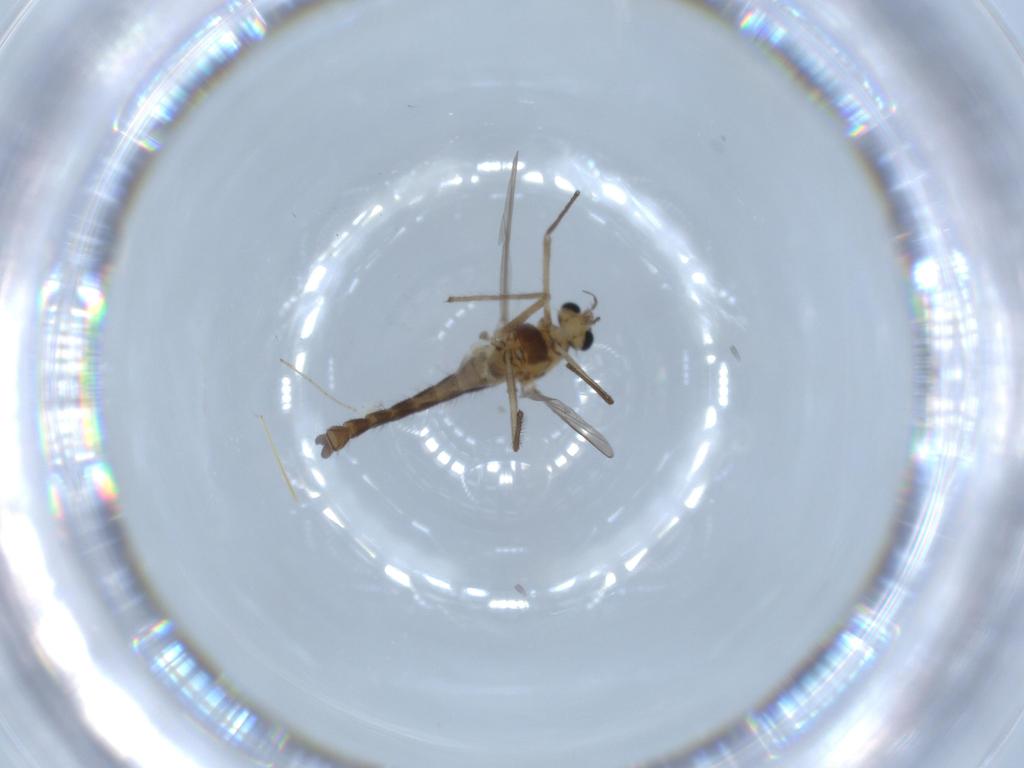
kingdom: Animalia
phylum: Arthropoda
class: Insecta
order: Diptera
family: Chironomidae
